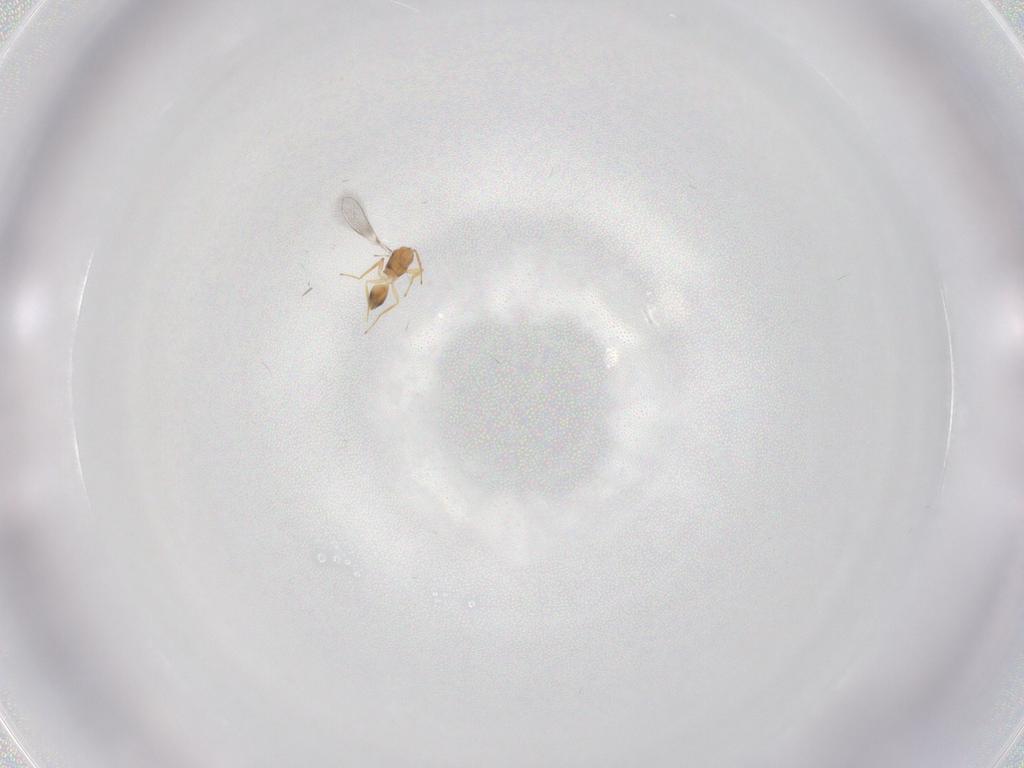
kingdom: Animalia
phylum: Arthropoda
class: Insecta
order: Hymenoptera
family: Mymaridae
